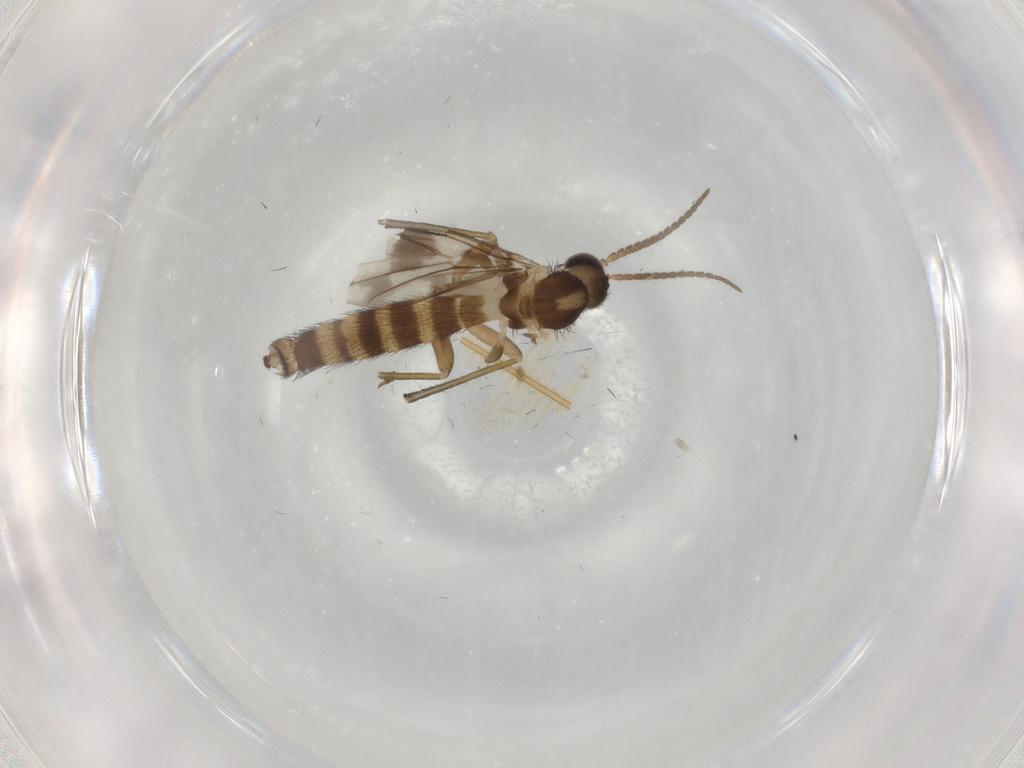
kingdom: Animalia
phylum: Arthropoda
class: Insecta
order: Diptera
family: Keroplatidae
